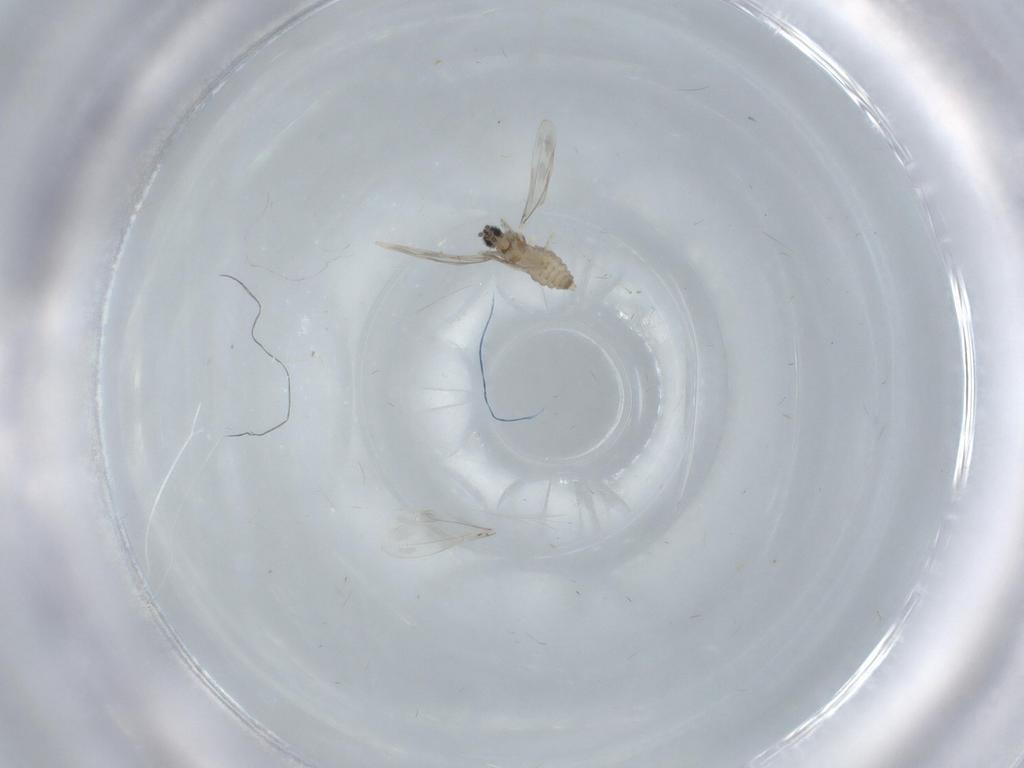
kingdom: Animalia
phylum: Arthropoda
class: Insecta
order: Diptera
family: Cecidomyiidae
